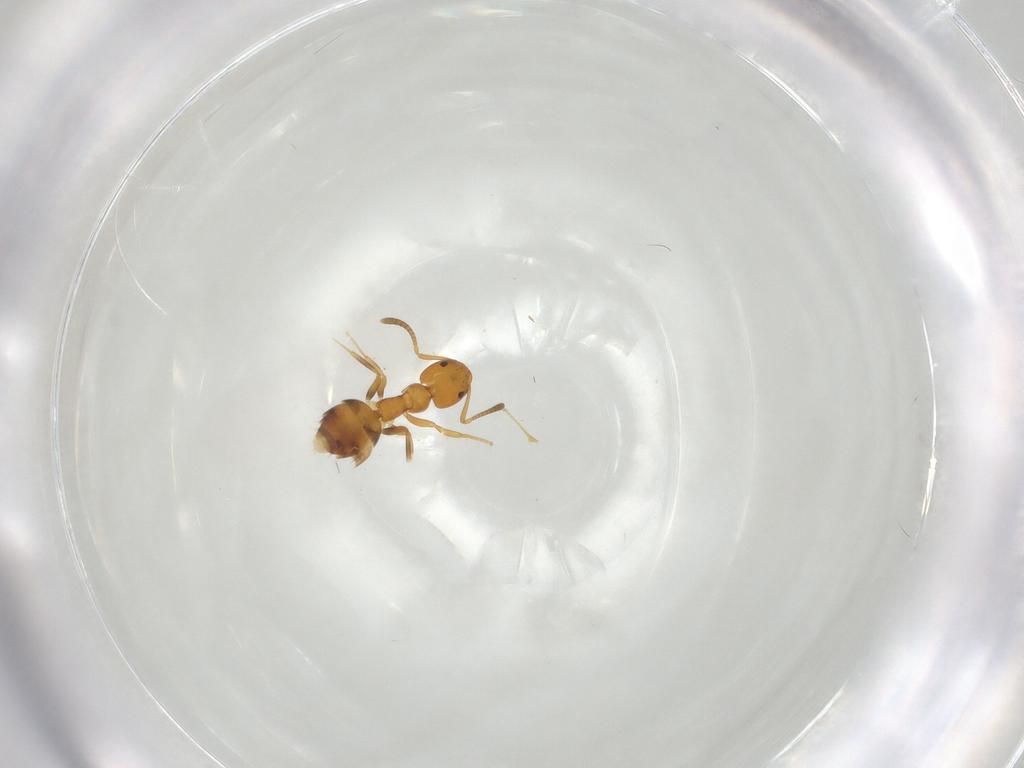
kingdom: Animalia
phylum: Arthropoda
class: Insecta
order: Hymenoptera
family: Formicidae
